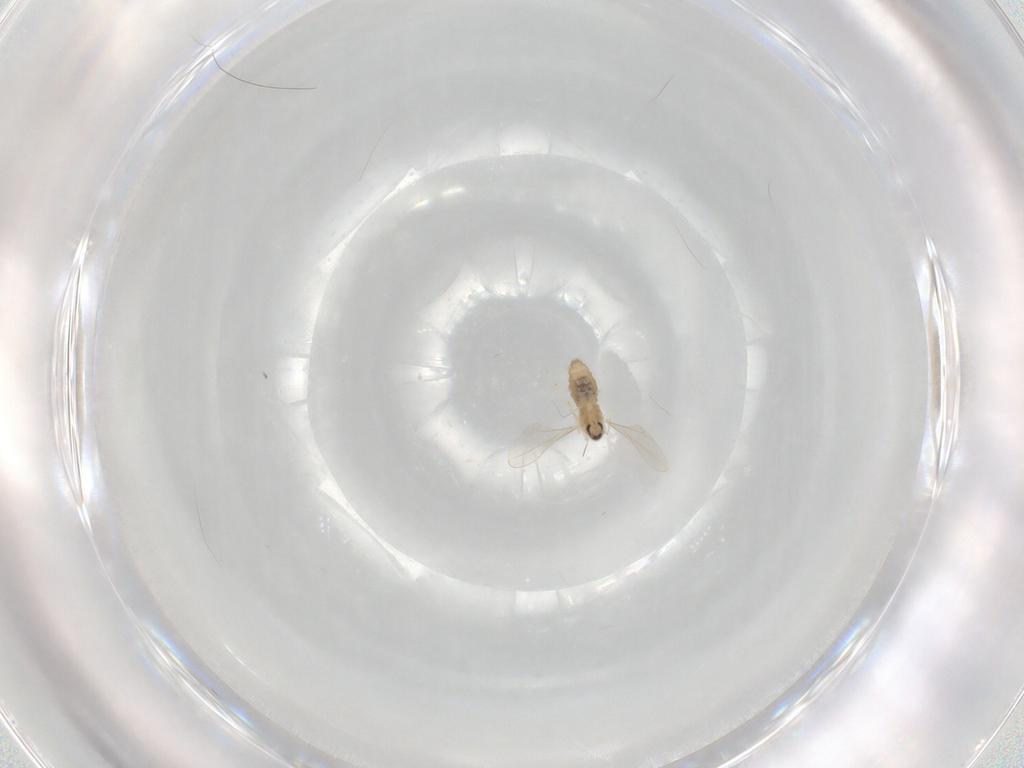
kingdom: Animalia
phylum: Arthropoda
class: Insecta
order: Diptera
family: Cecidomyiidae
